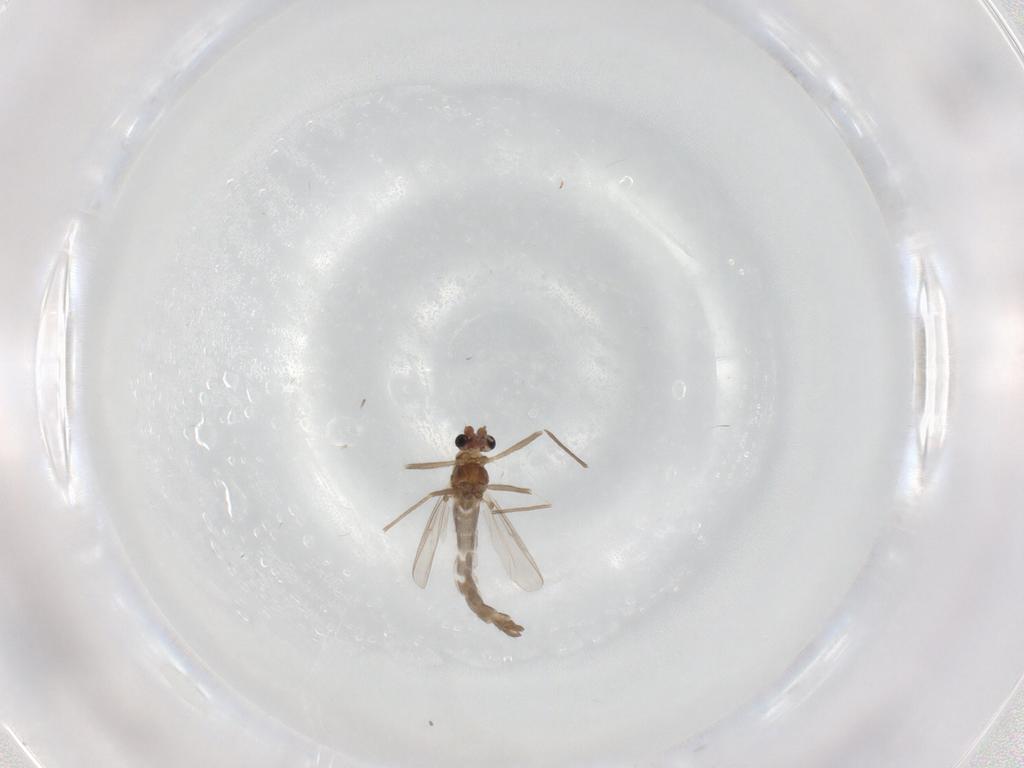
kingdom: Animalia
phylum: Arthropoda
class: Insecta
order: Diptera
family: Chironomidae
